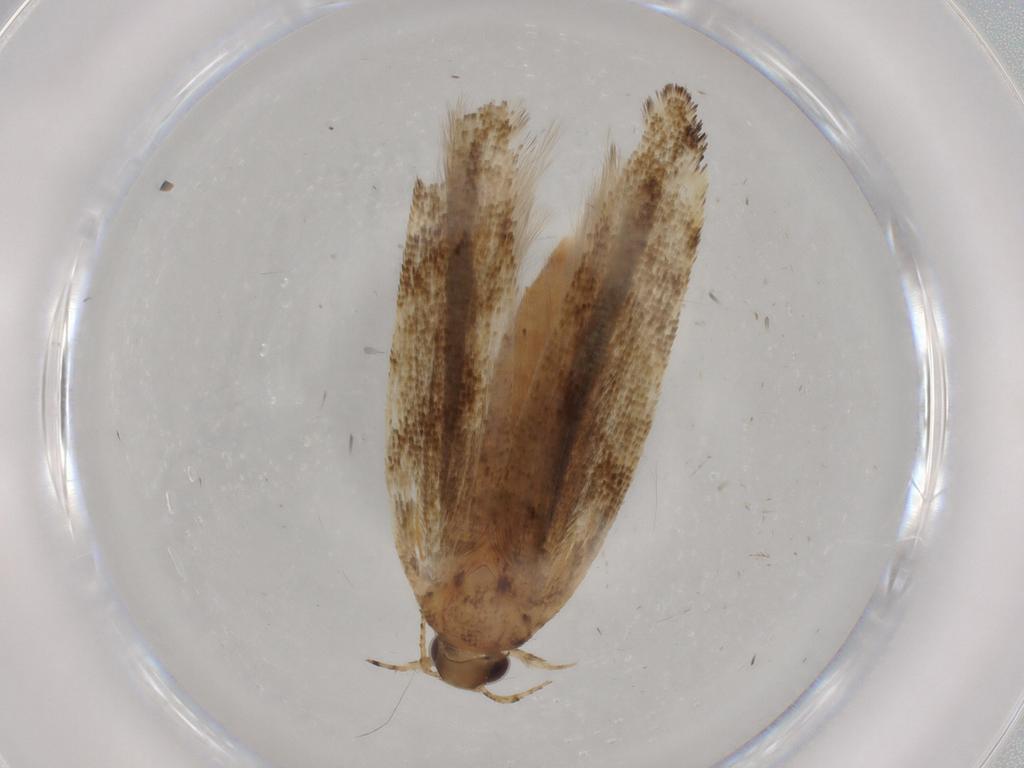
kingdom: Animalia
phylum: Arthropoda
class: Insecta
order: Lepidoptera
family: Gelechiidae
